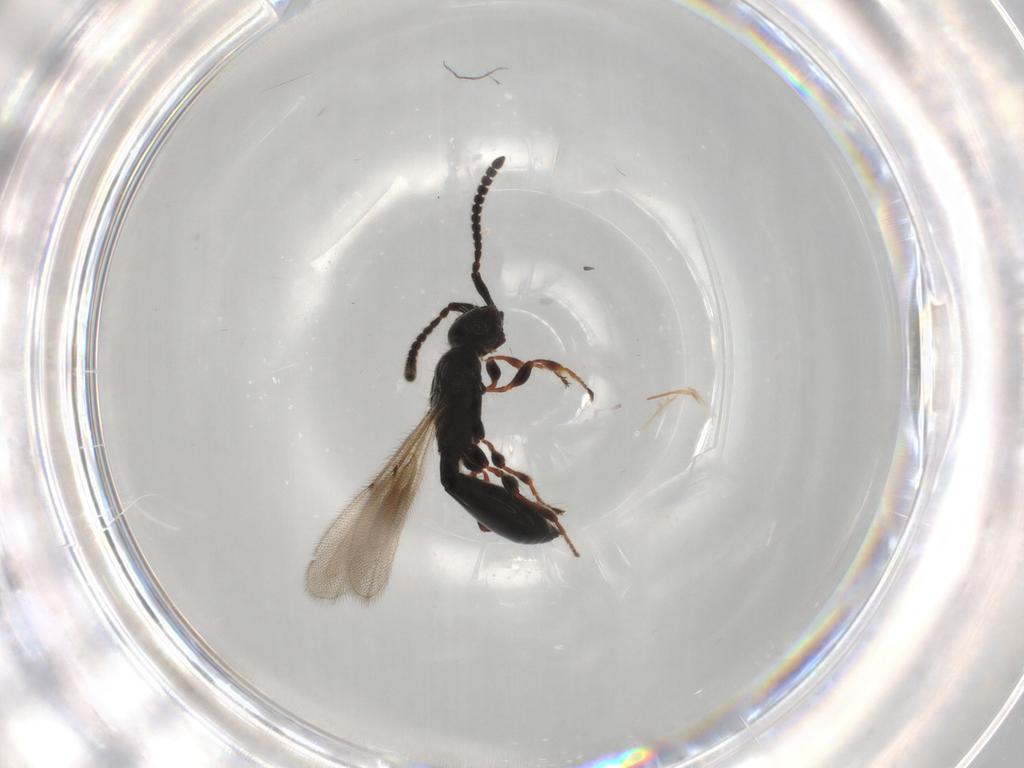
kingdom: Animalia
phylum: Arthropoda
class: Insecta
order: Hymenoptera
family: Diapriidae
